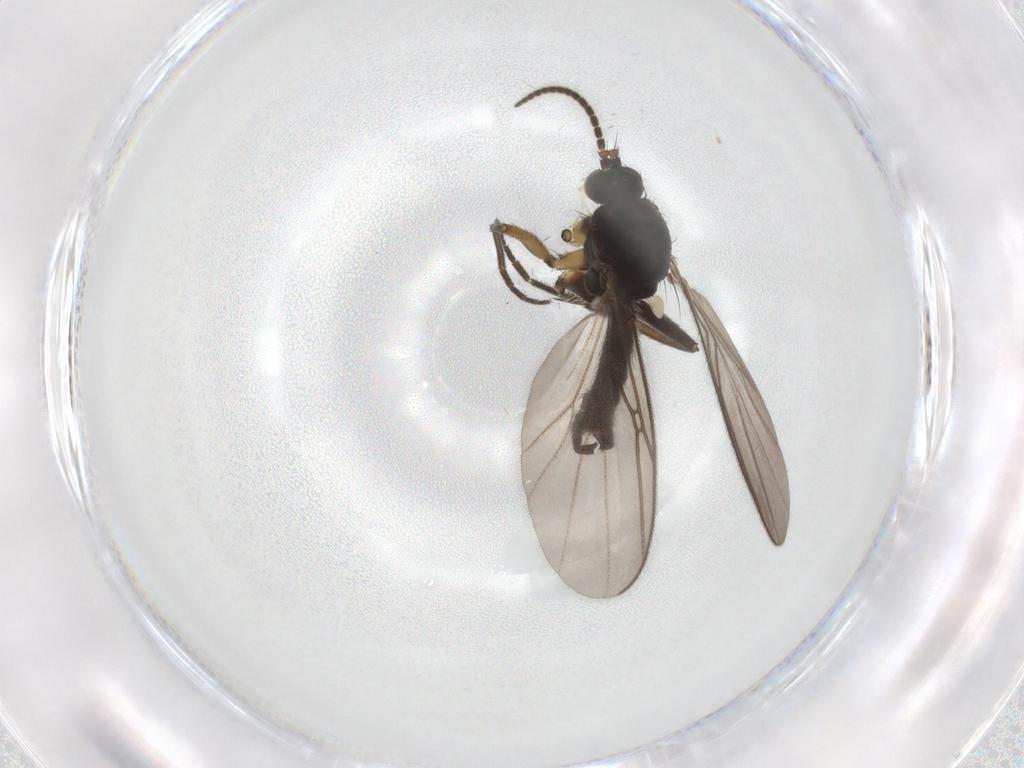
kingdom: Animalia
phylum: Arthropoda
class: Insecta
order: Diptera
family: Mycetophilidae
